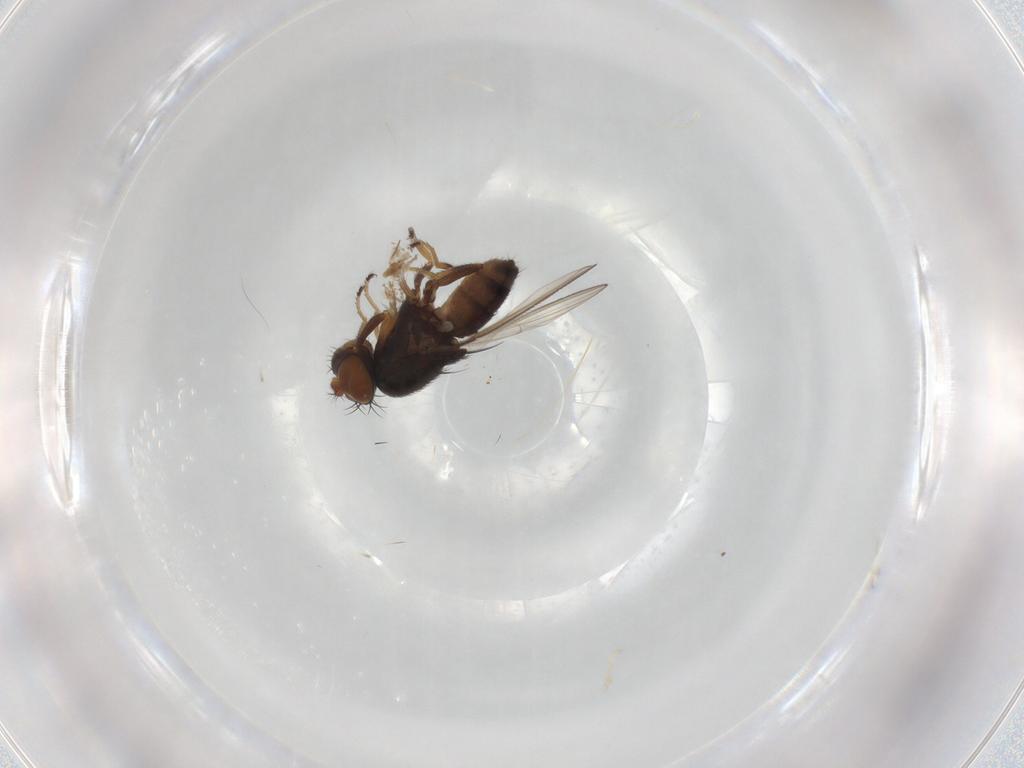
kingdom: Animalia
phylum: Arthropoda
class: Insecta
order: Diptera
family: Ephydridae
